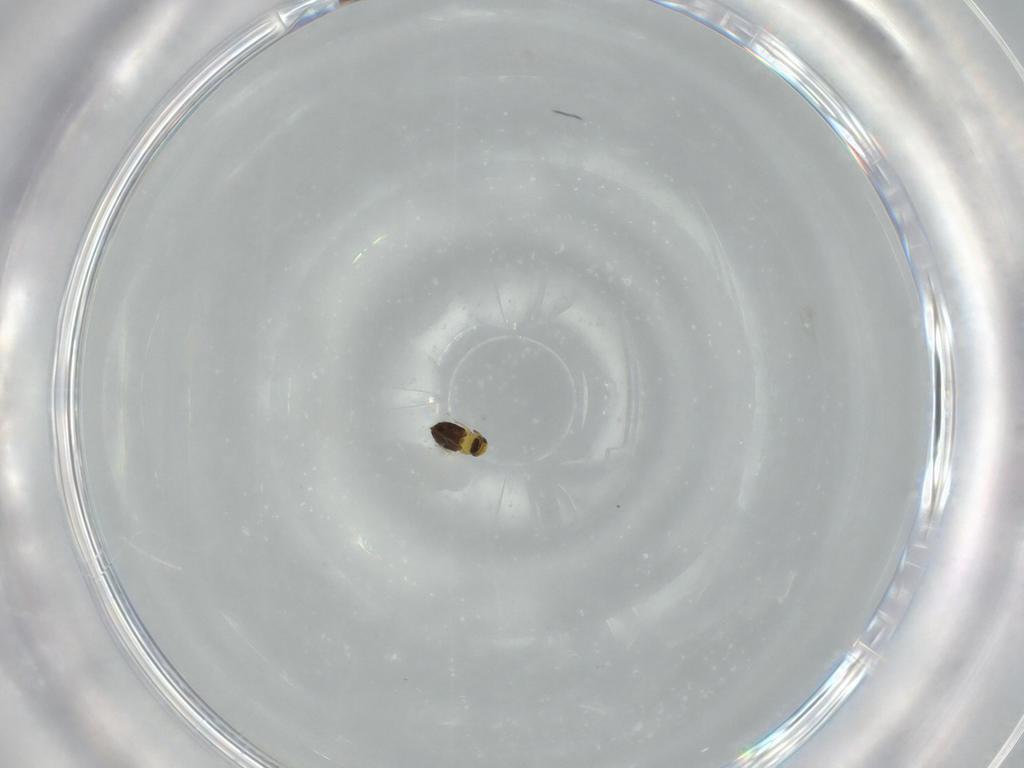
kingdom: Animalia
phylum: Arthropoda
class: Insecta
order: Hymenoptera
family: Signiphoridae
